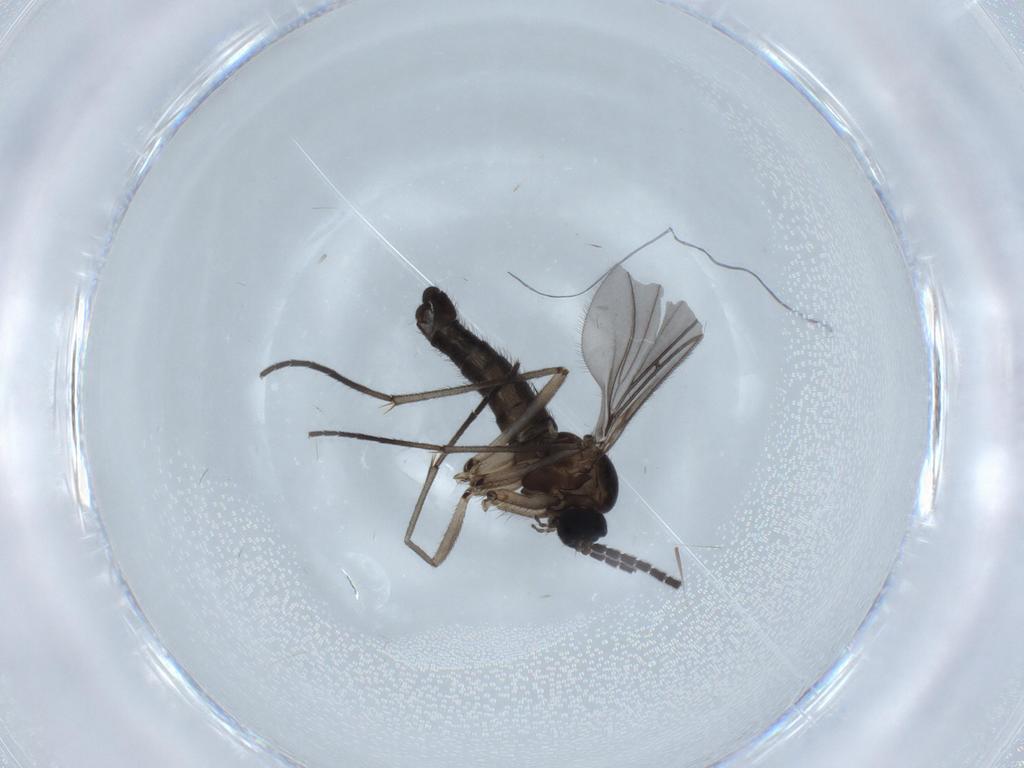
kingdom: Animalia
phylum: Arthropoda
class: Insecta
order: Diptera
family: Sciaridae
